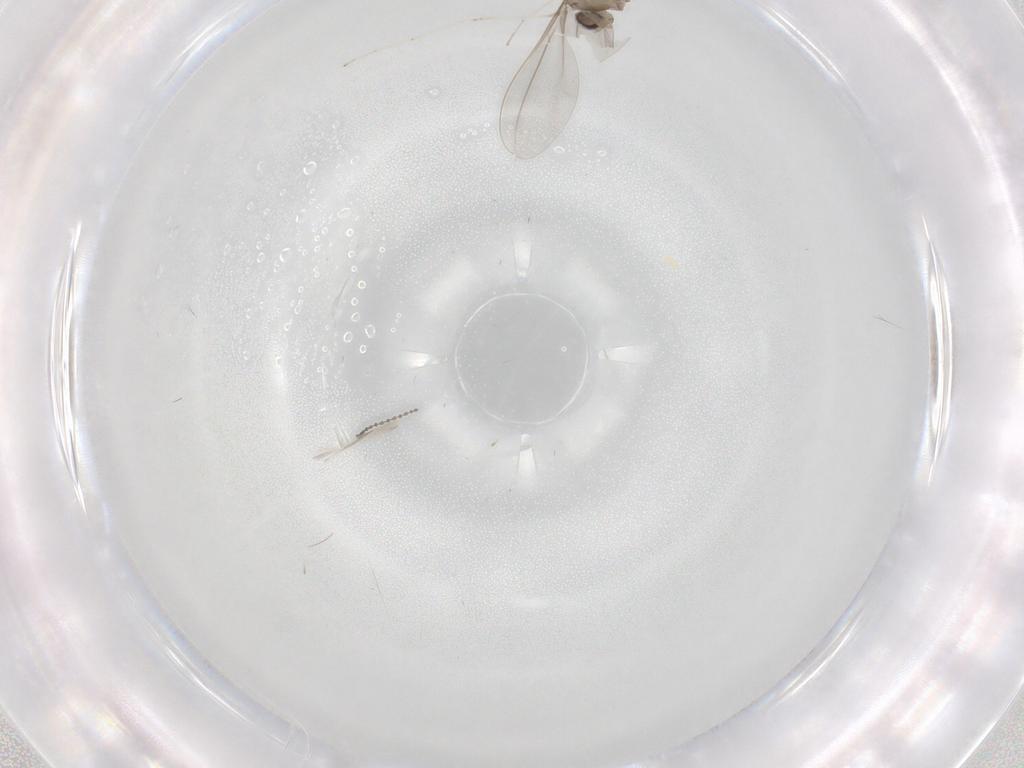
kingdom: Animalia
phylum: Arthropoda
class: Insecta
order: Diptera
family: Cecidomyiidae
